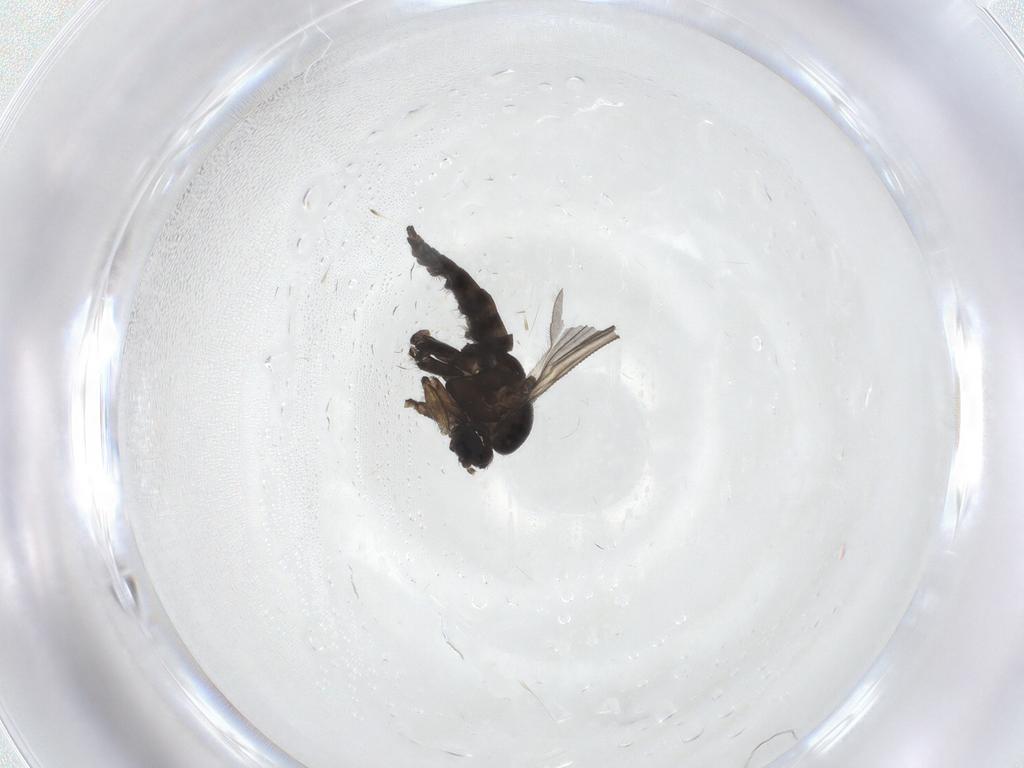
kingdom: Animalia
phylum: Arthropoda
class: Insecta
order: Diptera
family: Sciaridae
